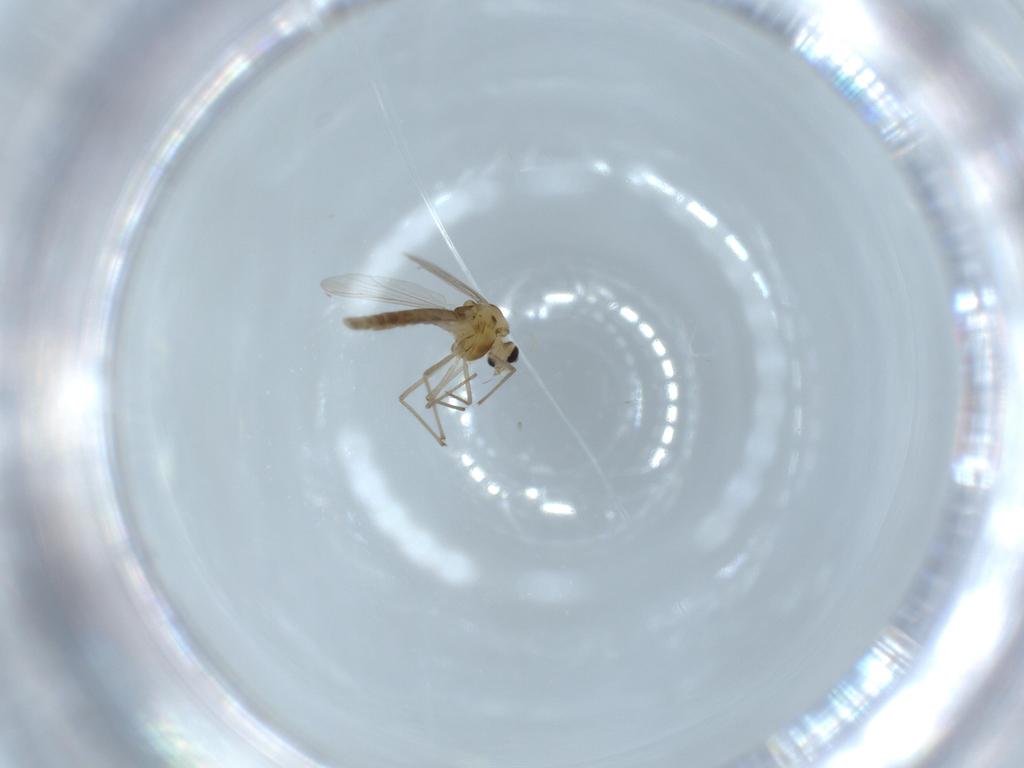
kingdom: Animalia
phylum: Arthropoda
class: Insecta
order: Diptera
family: Chironomidae
